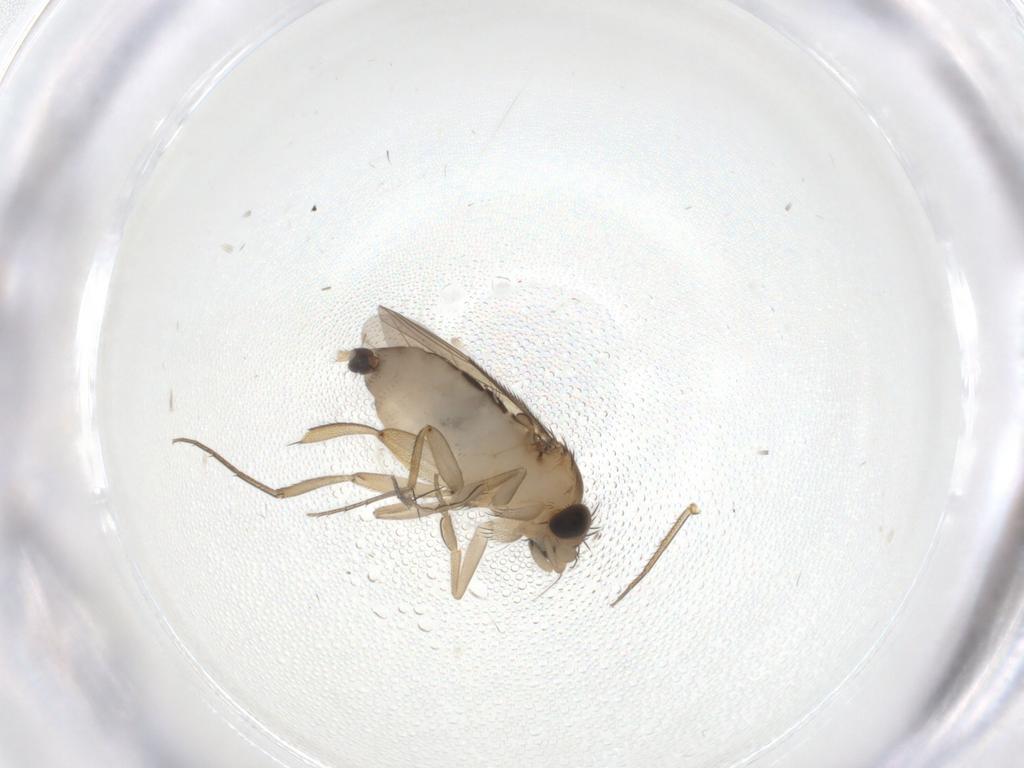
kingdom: Animalia
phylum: Arthropoda
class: Insecta
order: Diptera
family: Phoridae
